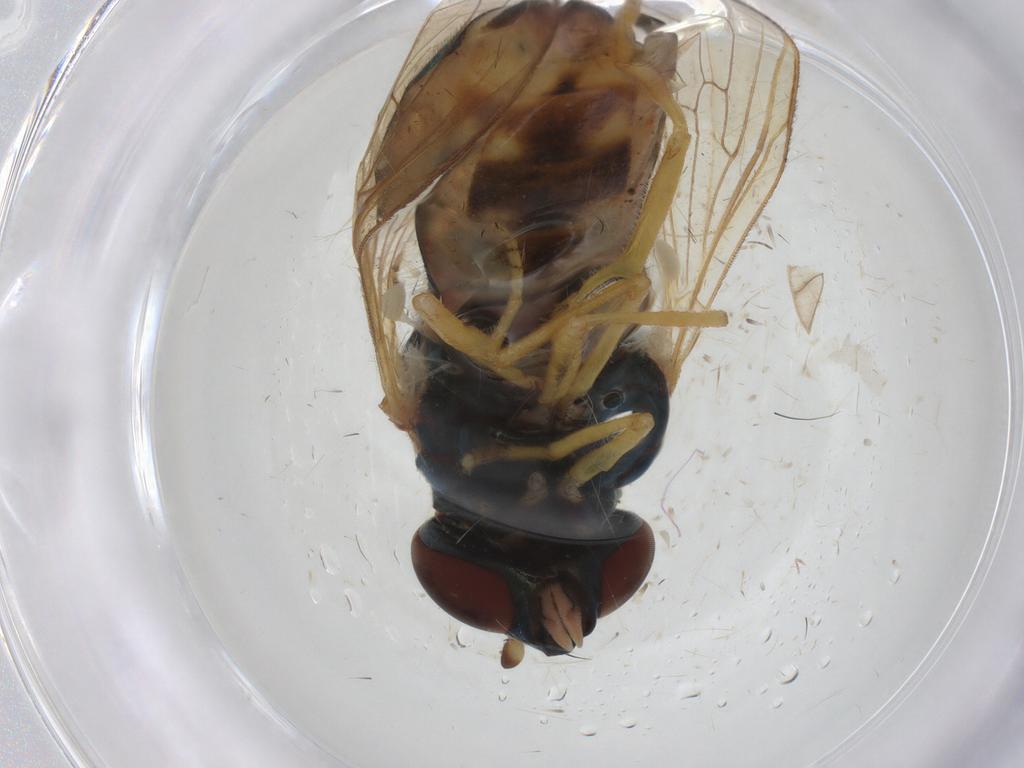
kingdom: Animalia
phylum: Arthropoda
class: Insecta
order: Diptera
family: Syrphidae
